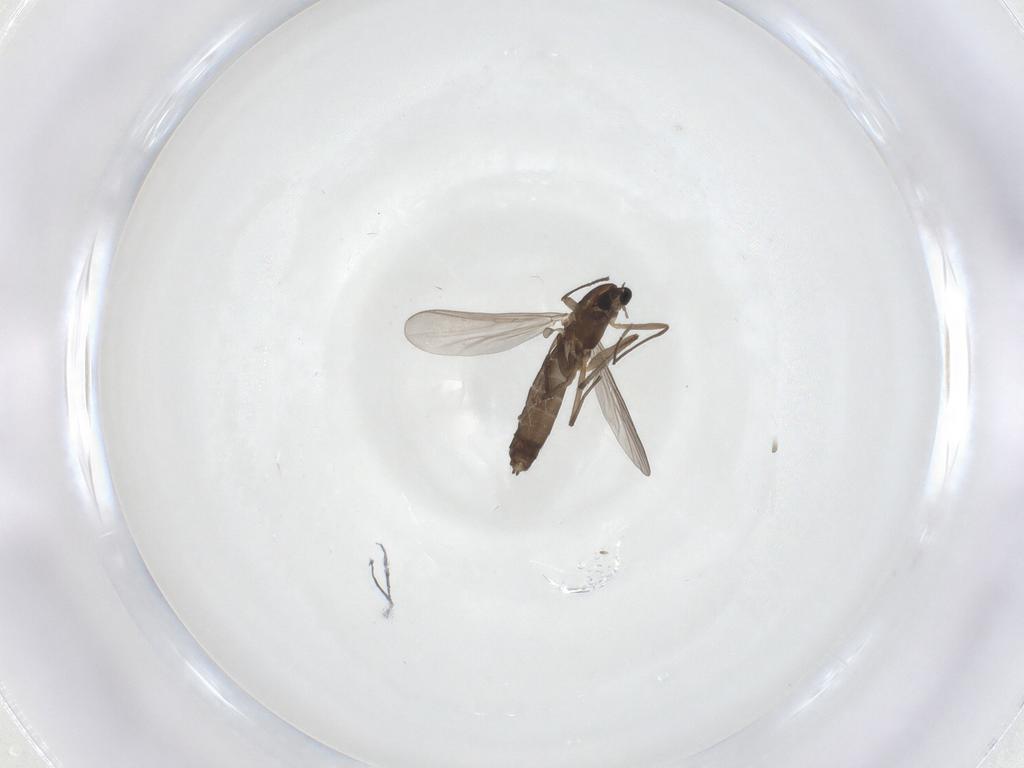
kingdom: Animalia
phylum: Arthropoda
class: Insecta
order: Diptera
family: Chironomidae
